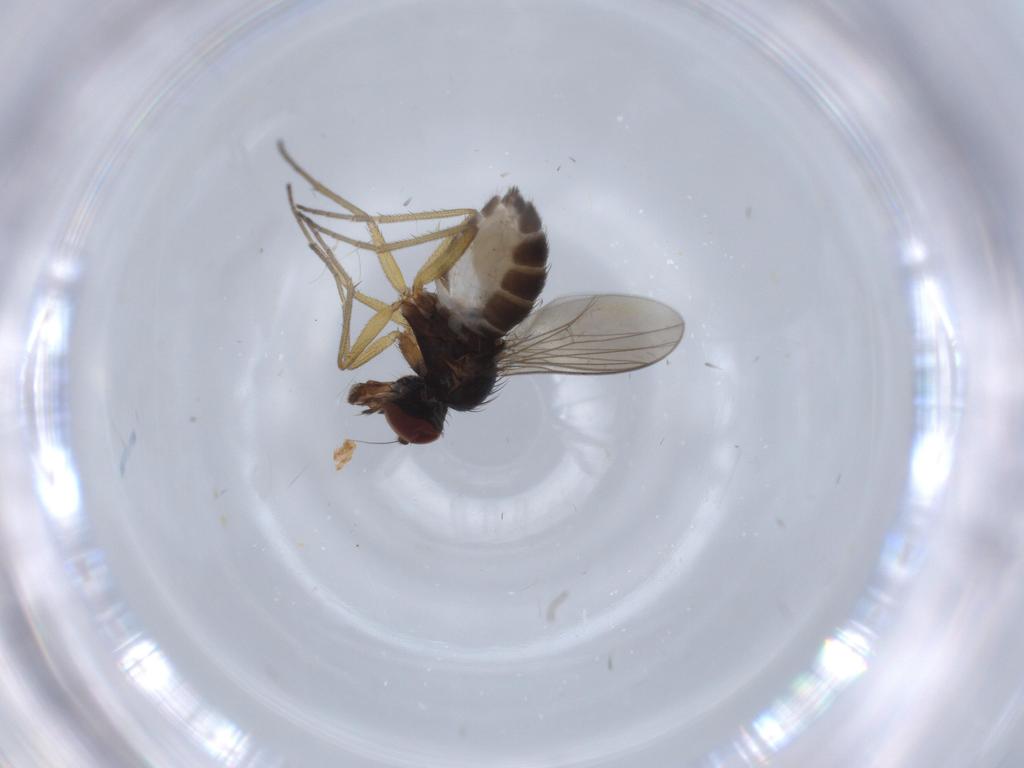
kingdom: Animalia
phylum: Arthropoda
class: Insecta
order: Diptera
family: Dolichopodidae
